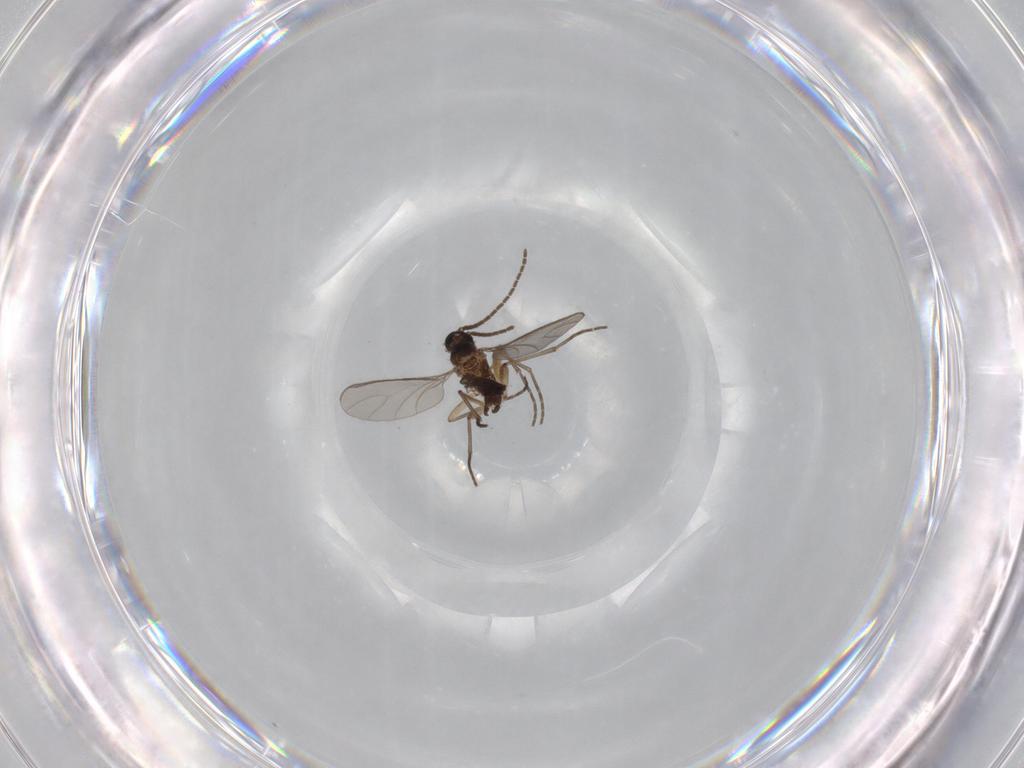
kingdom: Animalia
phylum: Arthropoda
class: Insecta
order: Diptera
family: Sciaridae
